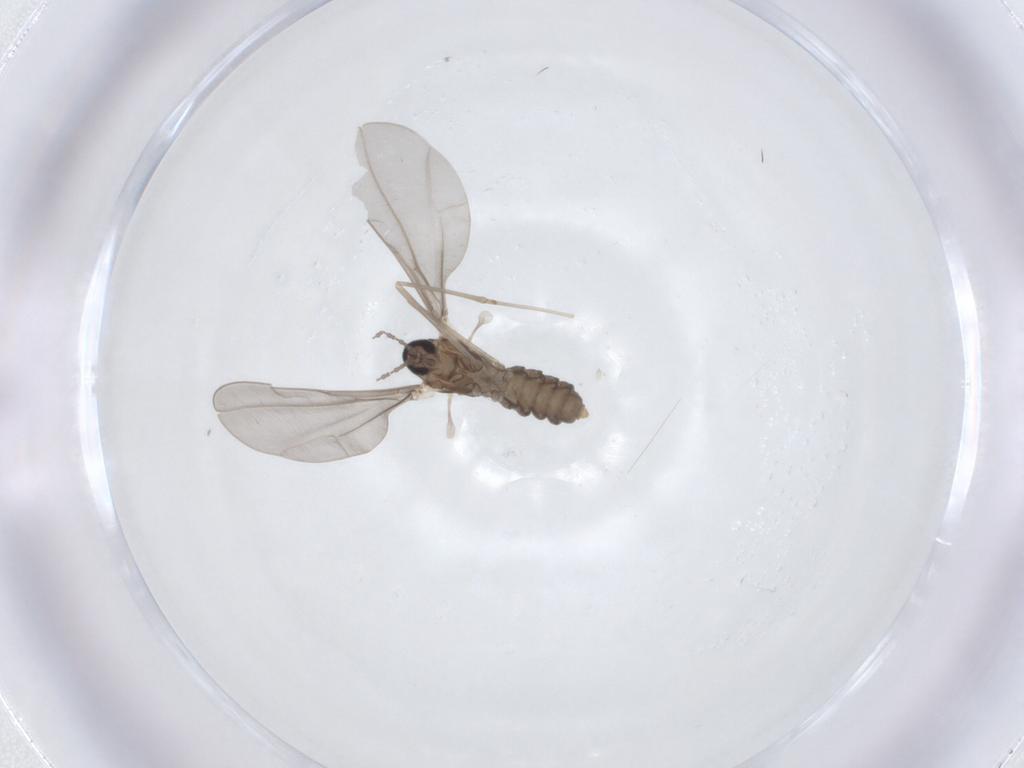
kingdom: Animalia
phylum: Arthropoda
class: Insecta
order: Diptera
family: Cecidomyiidae
